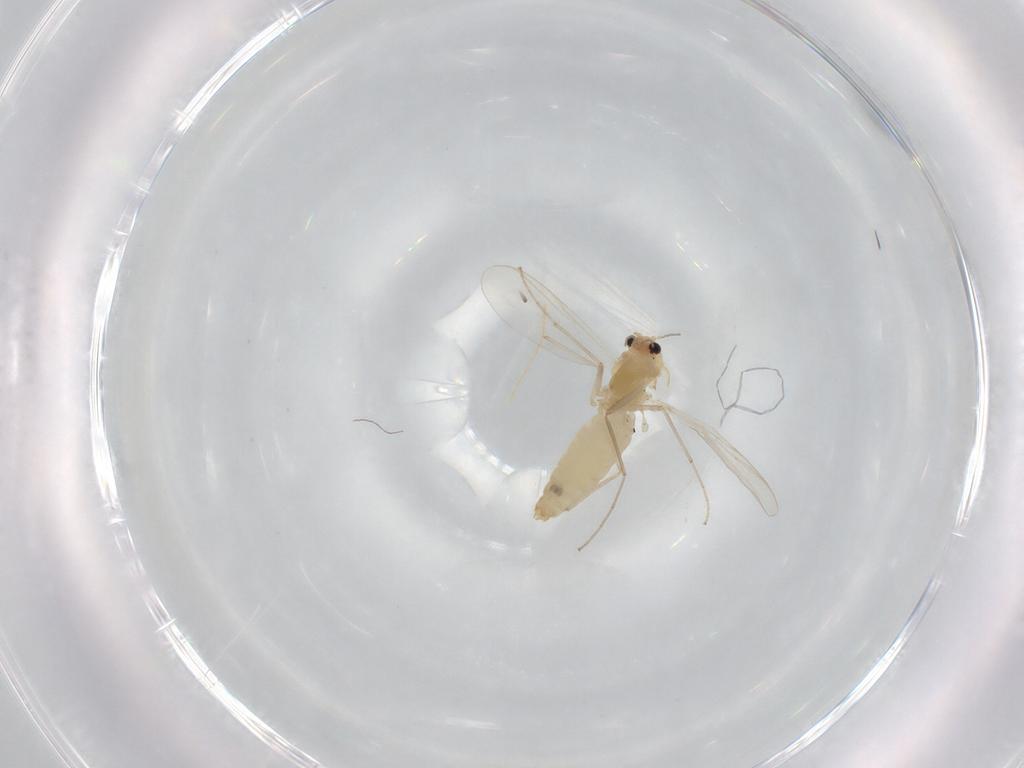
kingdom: Animalia
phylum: Arthropoda
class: Insecta
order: Diptera
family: Chironomidae
